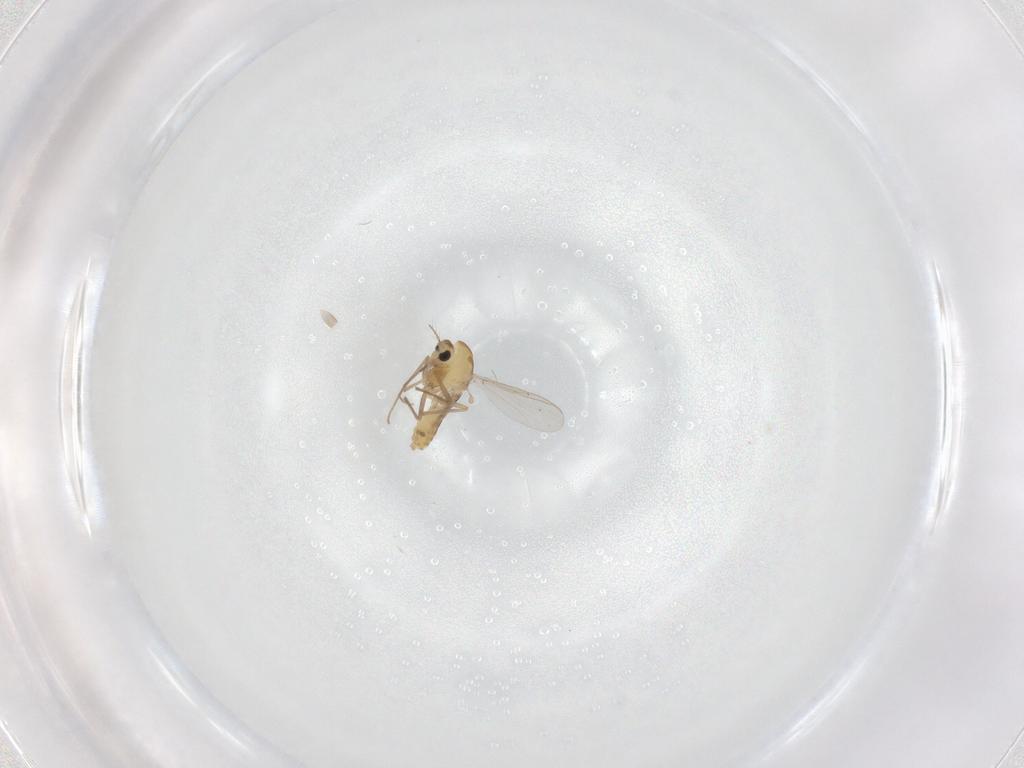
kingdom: Animalia
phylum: Arthropoda
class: Insecta
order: Diptera
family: Chironomidae
